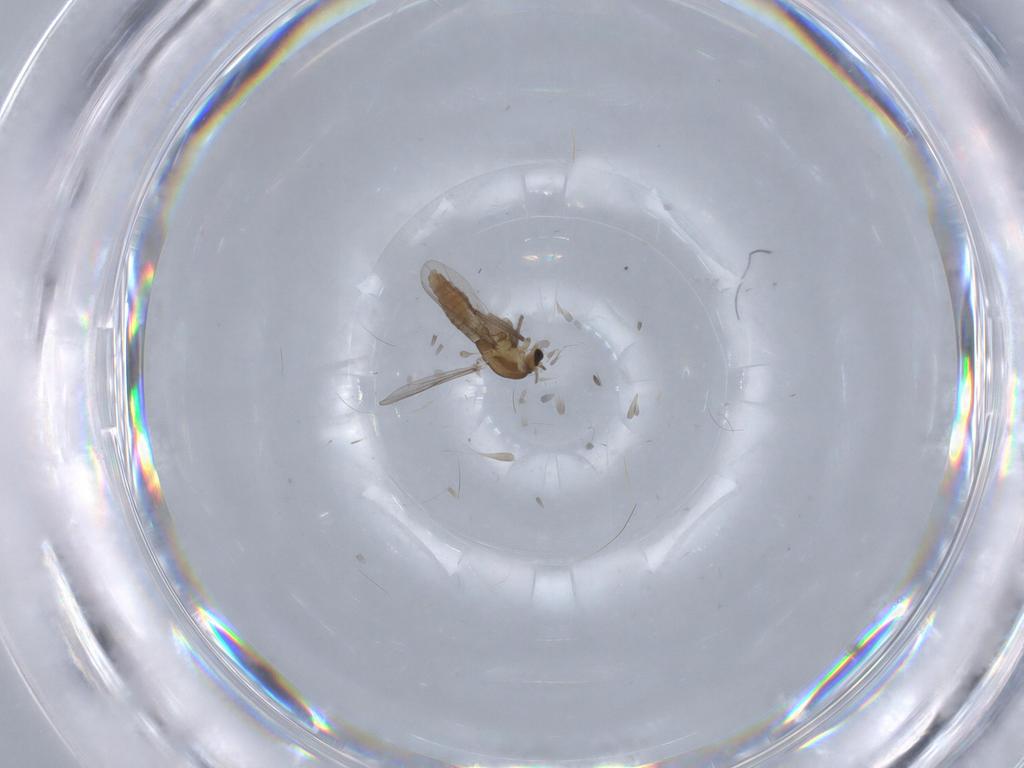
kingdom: Animalia
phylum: Arthropoda
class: Insecta
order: Diptera
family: Chironomidae
